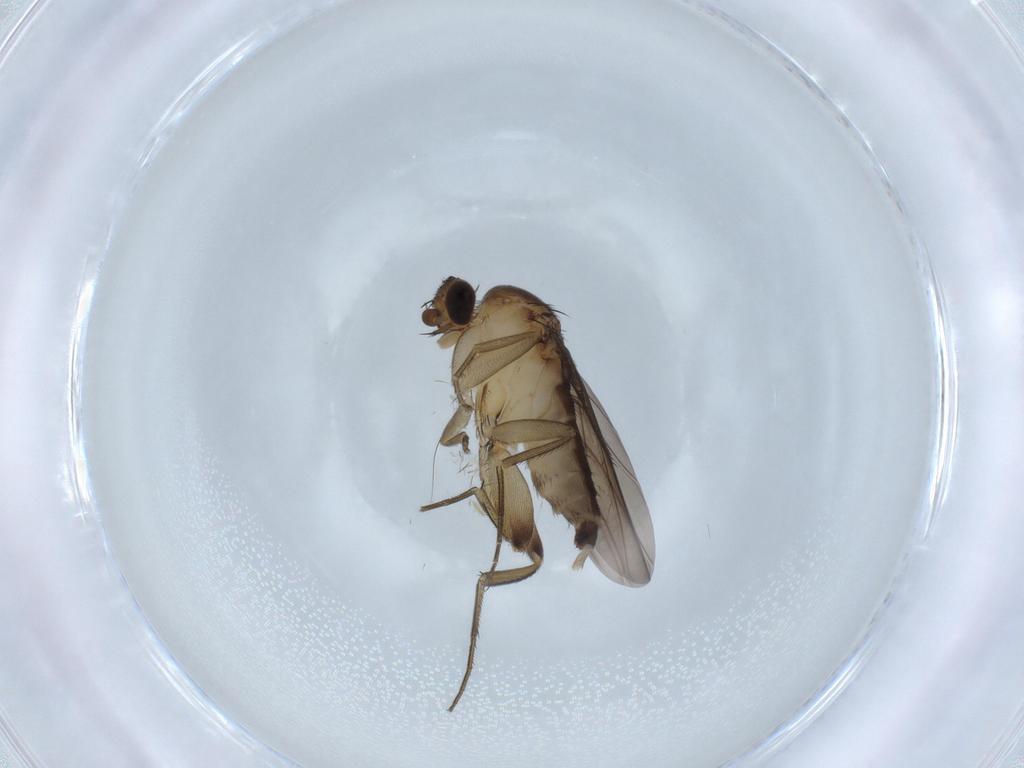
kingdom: Animalia
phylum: Arthropoda
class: Insecta
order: Diptera
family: Phoridae
